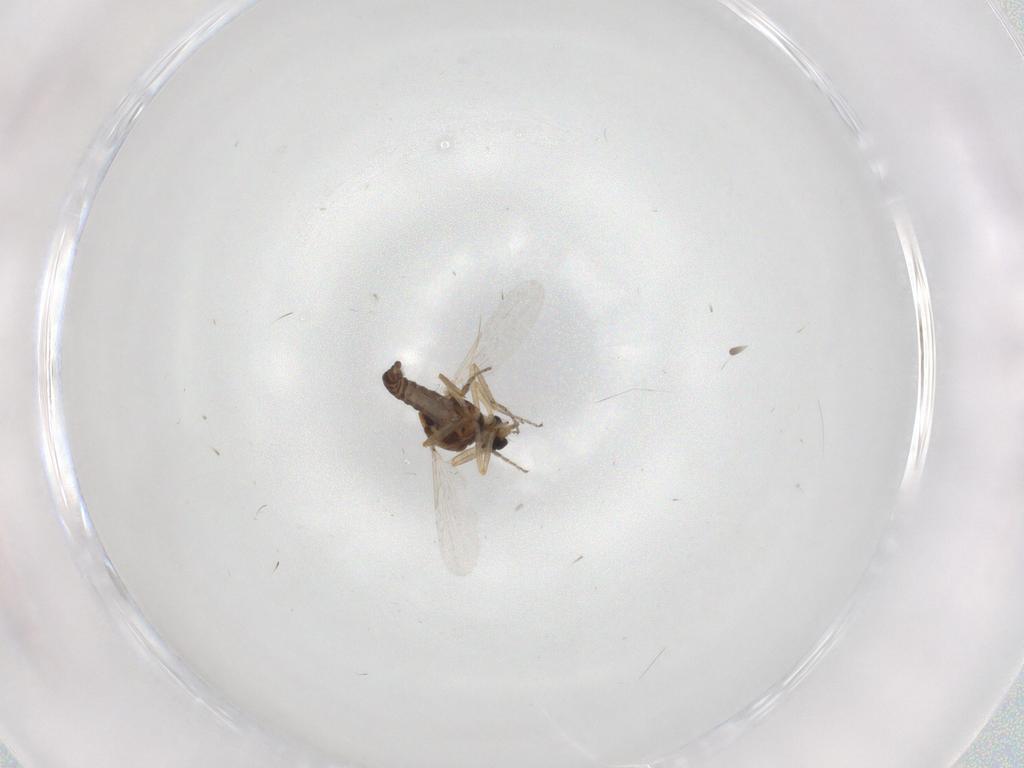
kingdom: Animalia
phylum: Arthropoda
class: Insecta
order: Diptera
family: Ceratopogonidae
